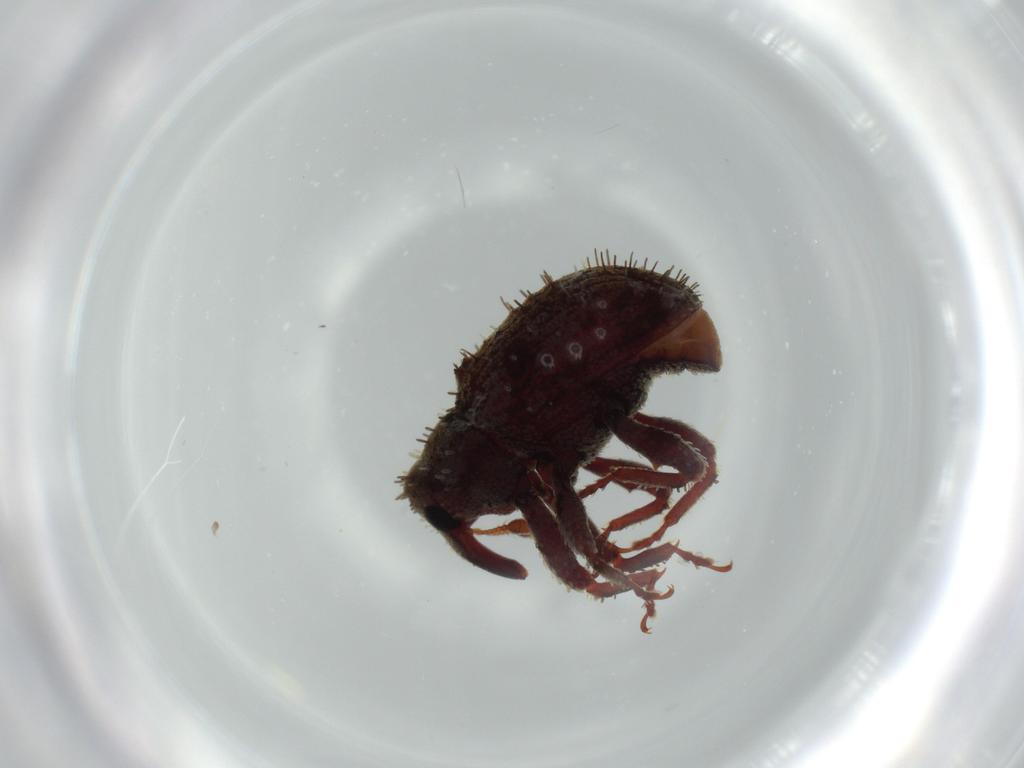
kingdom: Animalia
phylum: Arthropoda
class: Insecta
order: Coleoptera
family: Curculionidae
